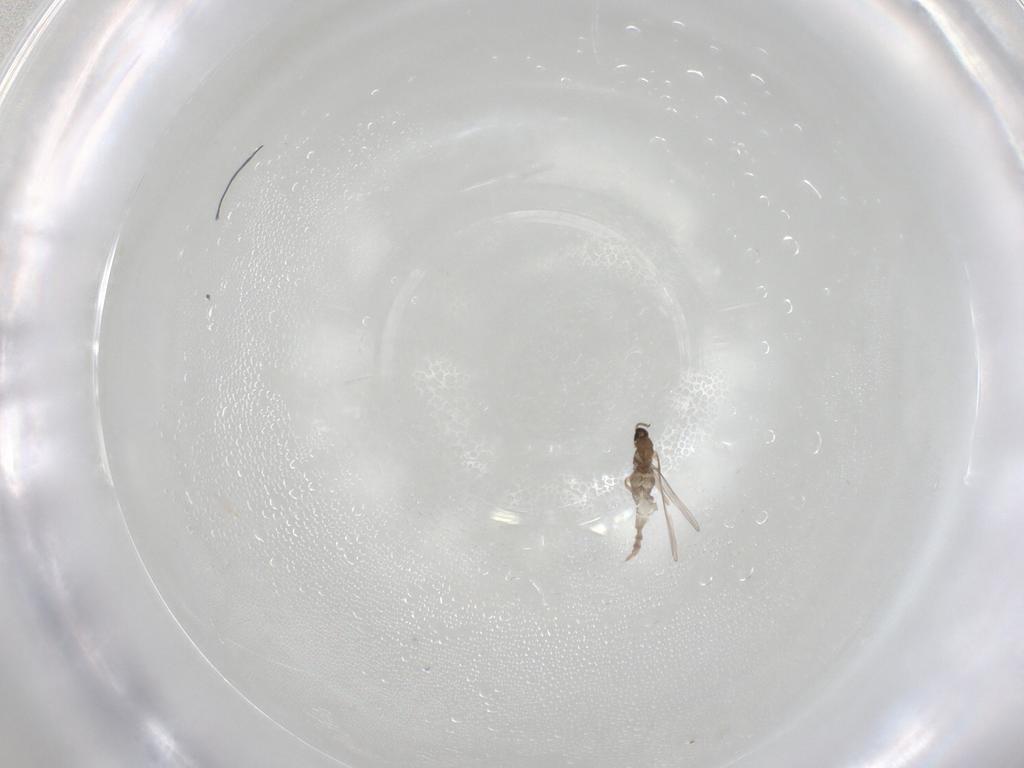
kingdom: Animalia
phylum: Arthropoda
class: Insecta
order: Diptera
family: Cecidomyiidae
